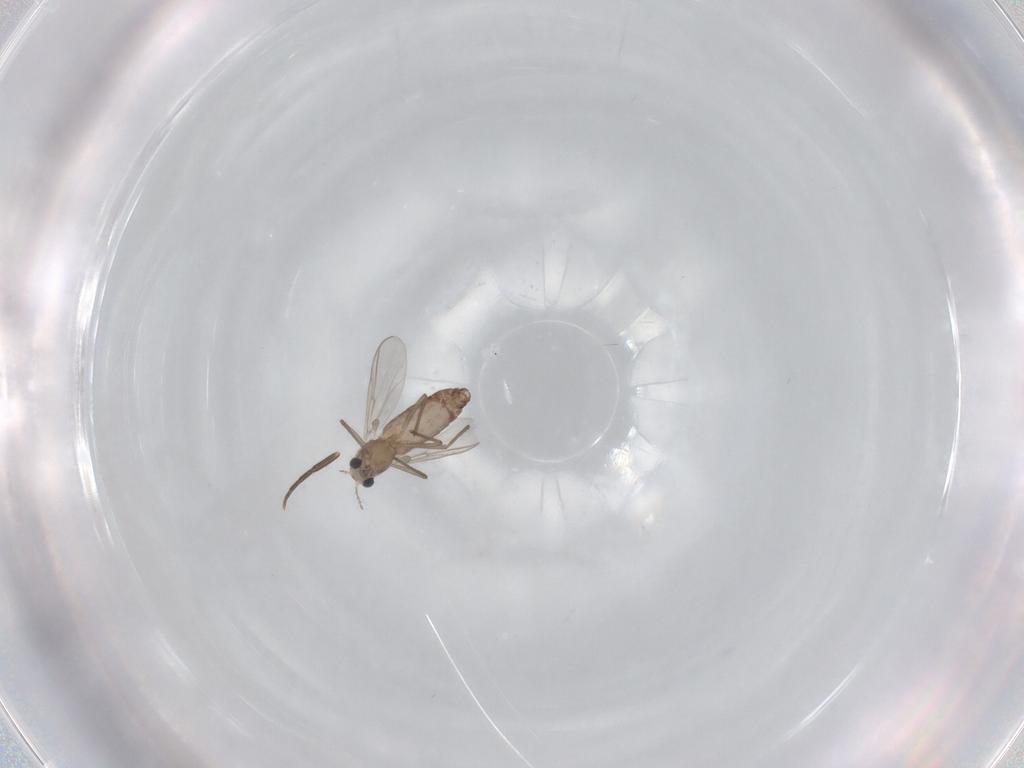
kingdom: Animalia
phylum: Arthropoda
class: Insecta
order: Diptera
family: Chironomidae
